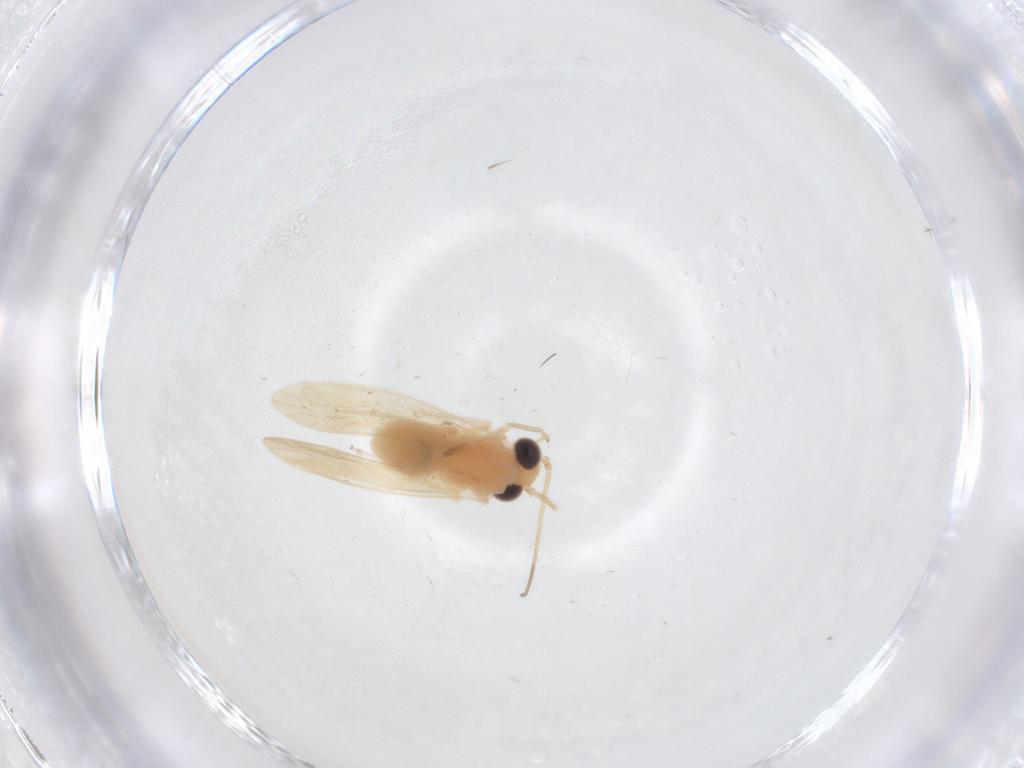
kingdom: Animalia
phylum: Arthropoda
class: Insecta
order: Psocodea
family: Caeciliusidae
